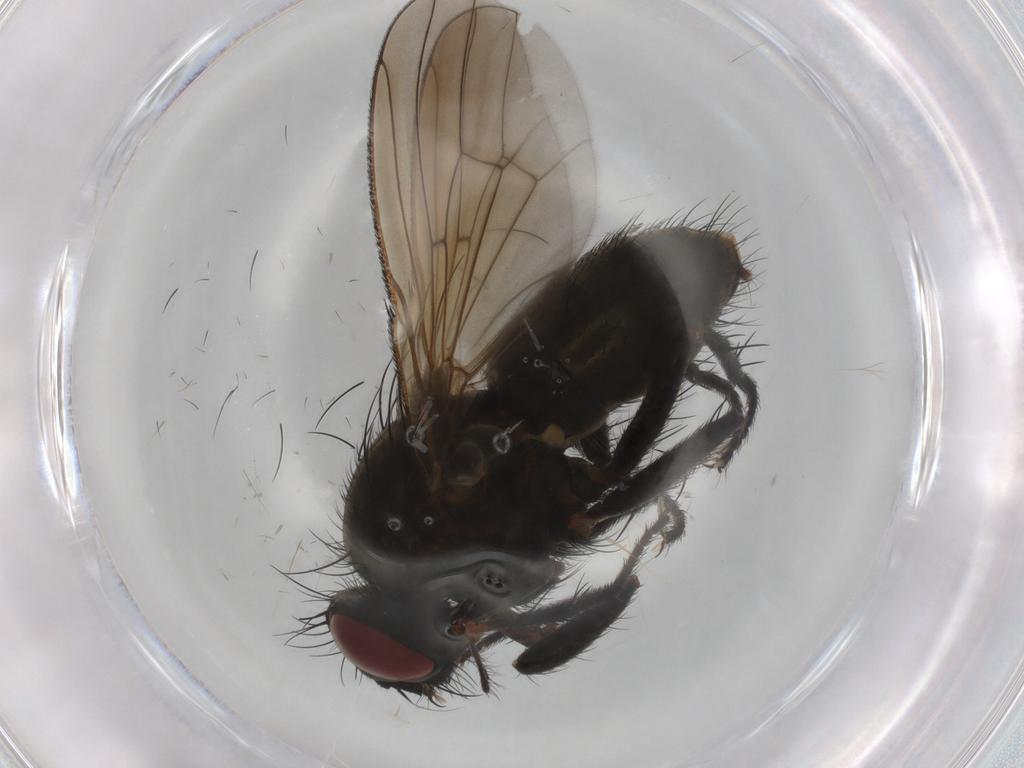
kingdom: Animalia
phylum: Arthropoda
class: Insecta
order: Diptera
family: Muscidae
